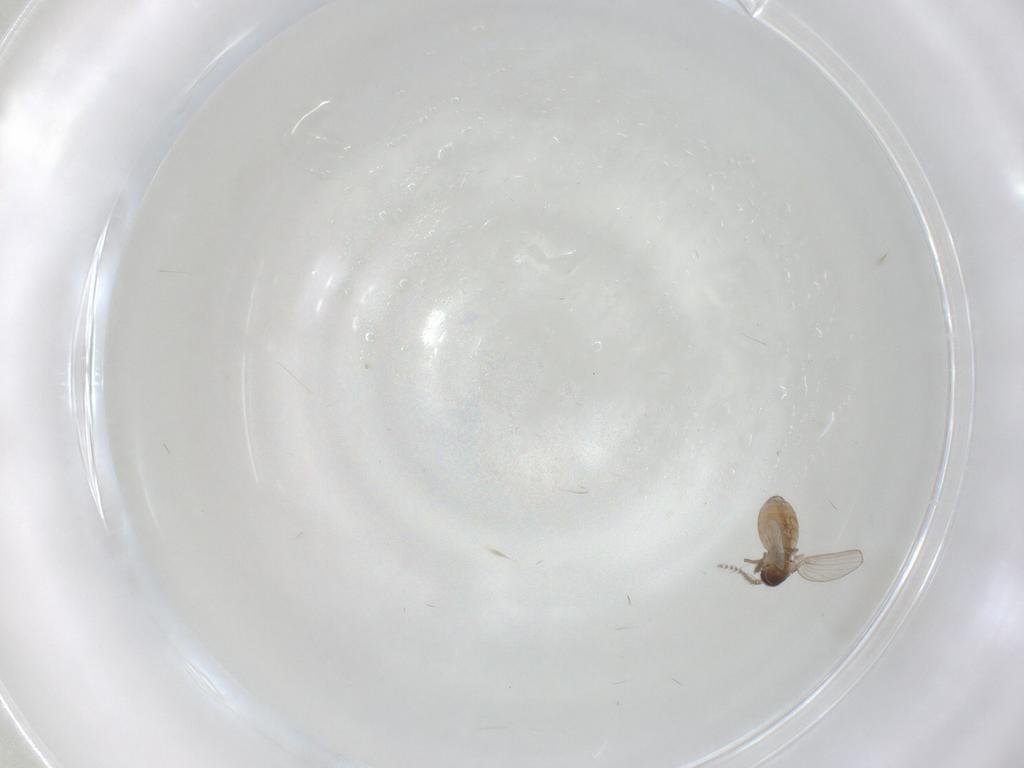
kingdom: Animalia
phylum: Arthropoda
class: Insecta
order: Diptera
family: Psychodidae
